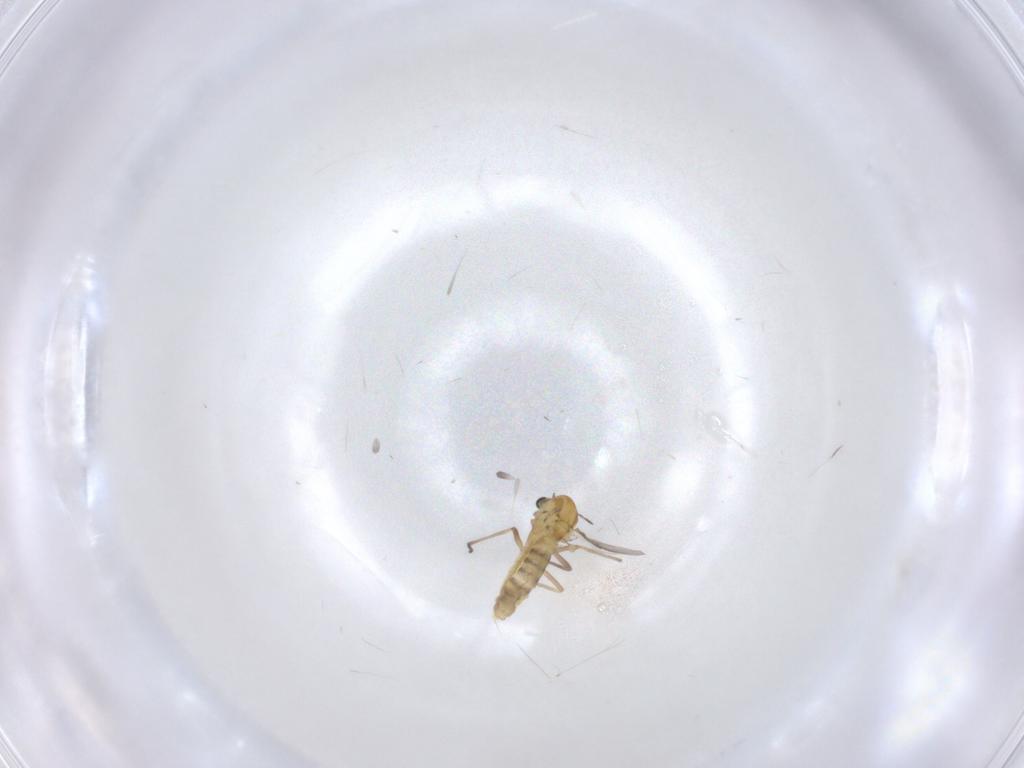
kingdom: Animalia
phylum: Arthropoda
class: Insecta
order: Diptera
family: Chironomidae
